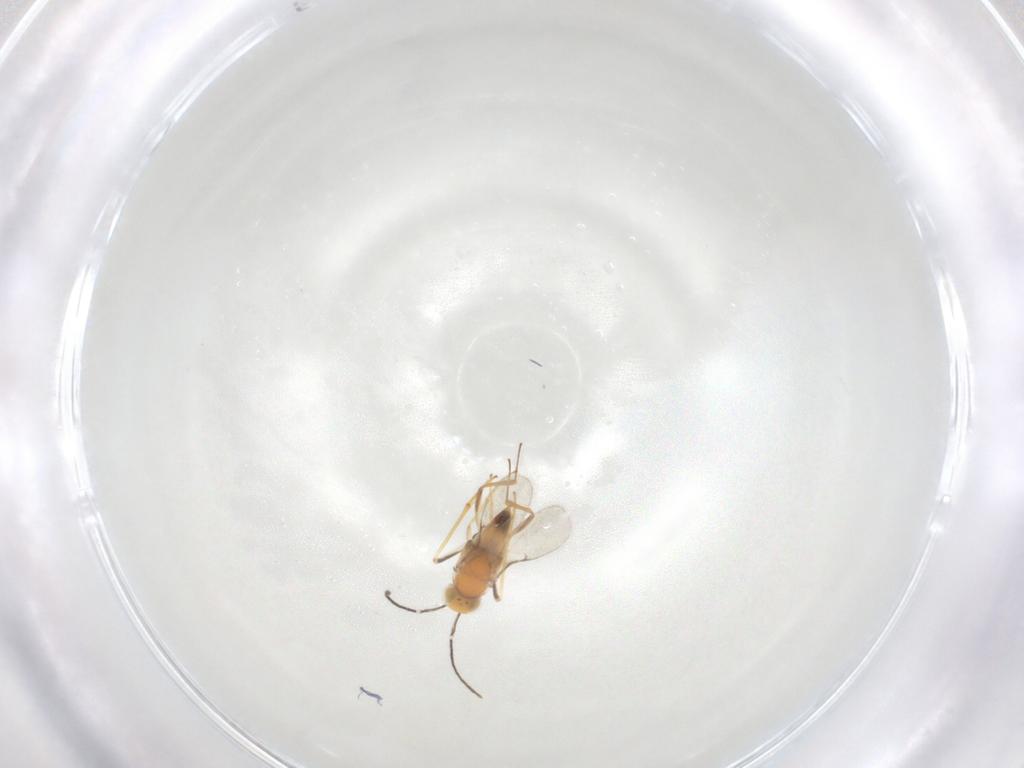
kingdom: Animalia
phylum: Arthropoda
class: Insecta
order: Hymenoptera
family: Encyrtidae
